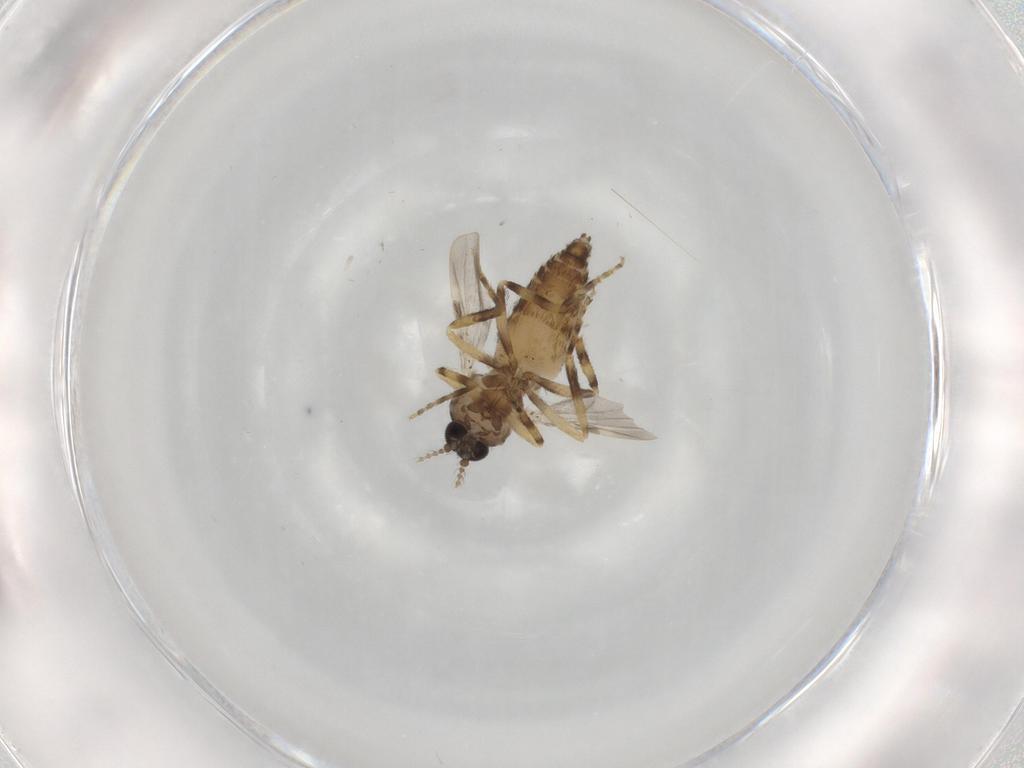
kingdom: Animalia
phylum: Arthropoda
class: Insecta
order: Diptera
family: Ceratopogonidae
